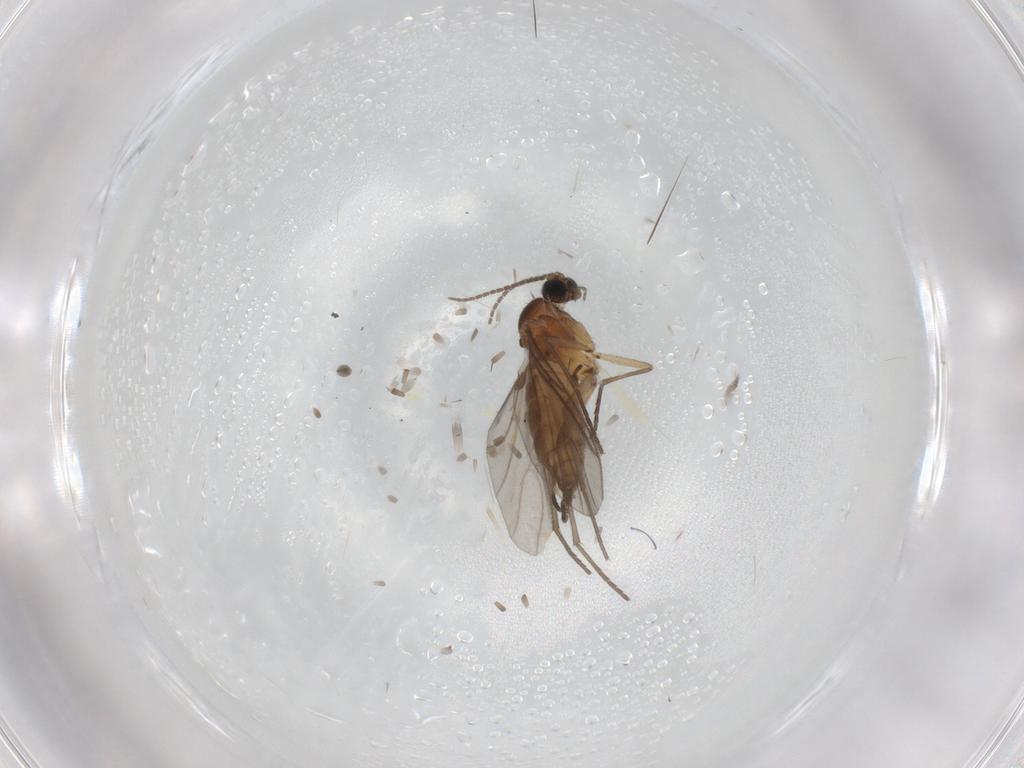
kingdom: Animalia
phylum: Arthropoda
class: Insecta
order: Diptera
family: Sciaridae
